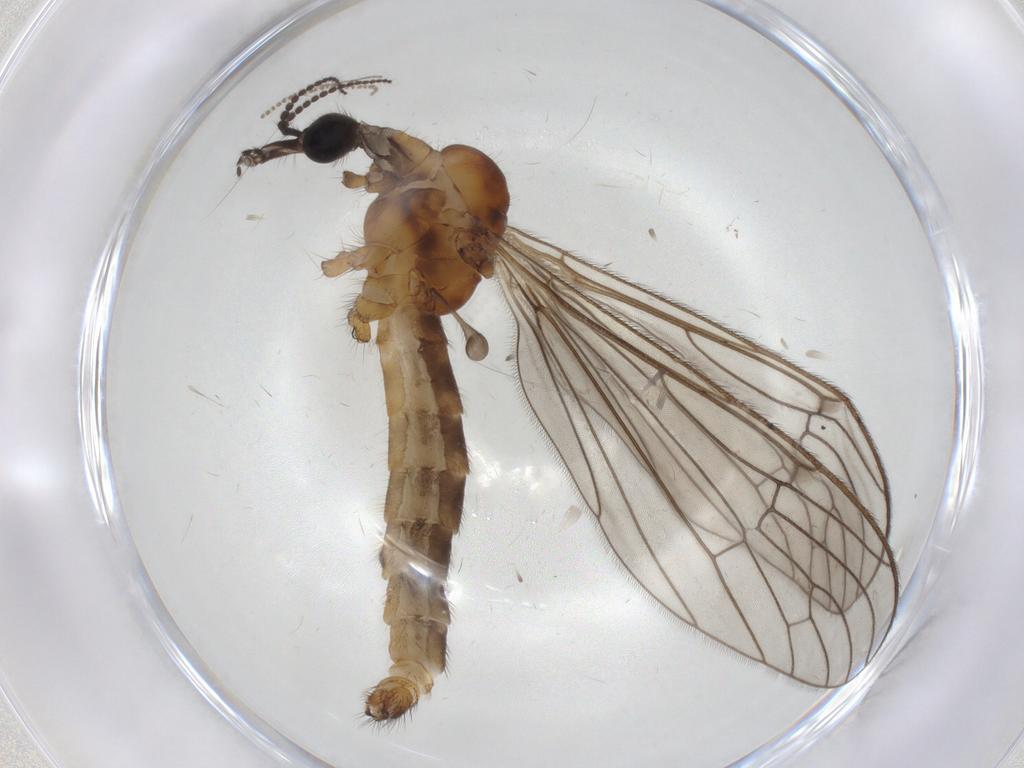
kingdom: Animalia
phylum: Arthropoda
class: Insecta
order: Diptera
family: Limoniidae
